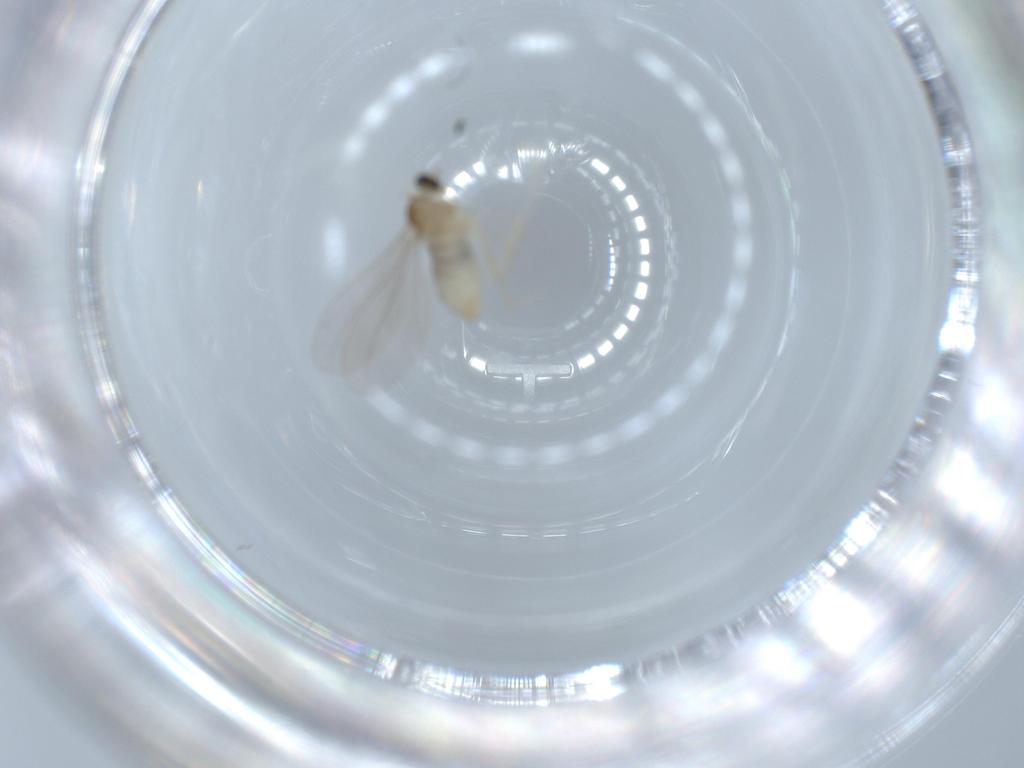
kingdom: Animalia
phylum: Arthropoda
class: Insecta
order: Diptera
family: Cecidomyiidae
